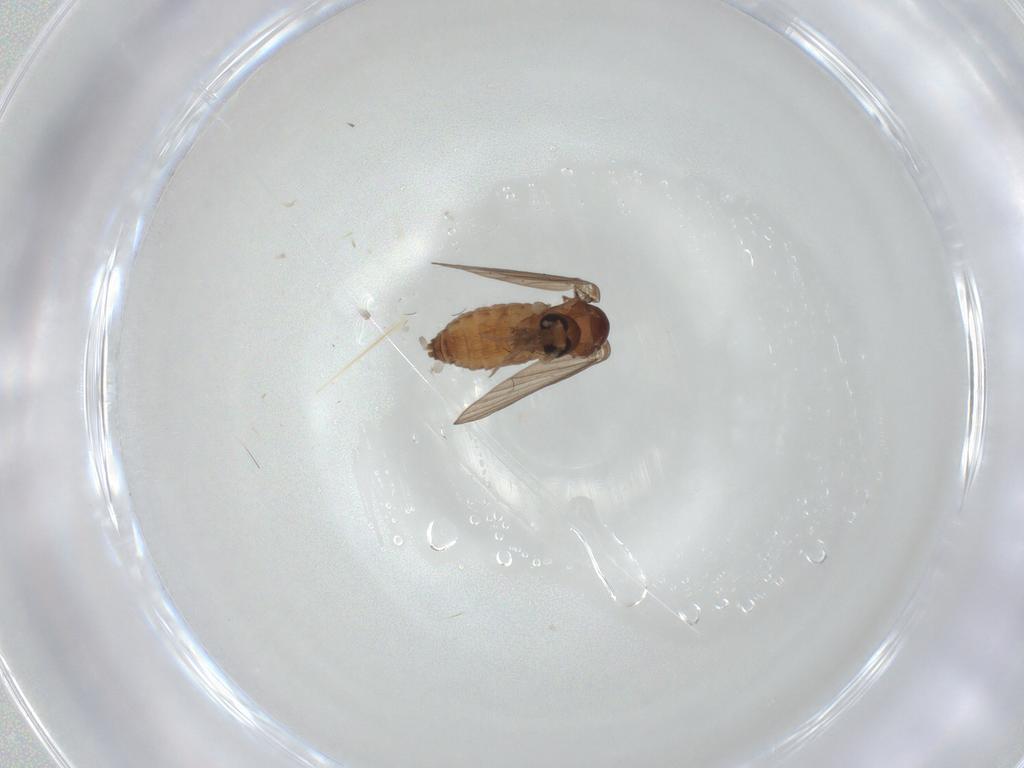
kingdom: Animalia
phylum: Arthropoda
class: Insecta
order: Diptera
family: Psychodidae
